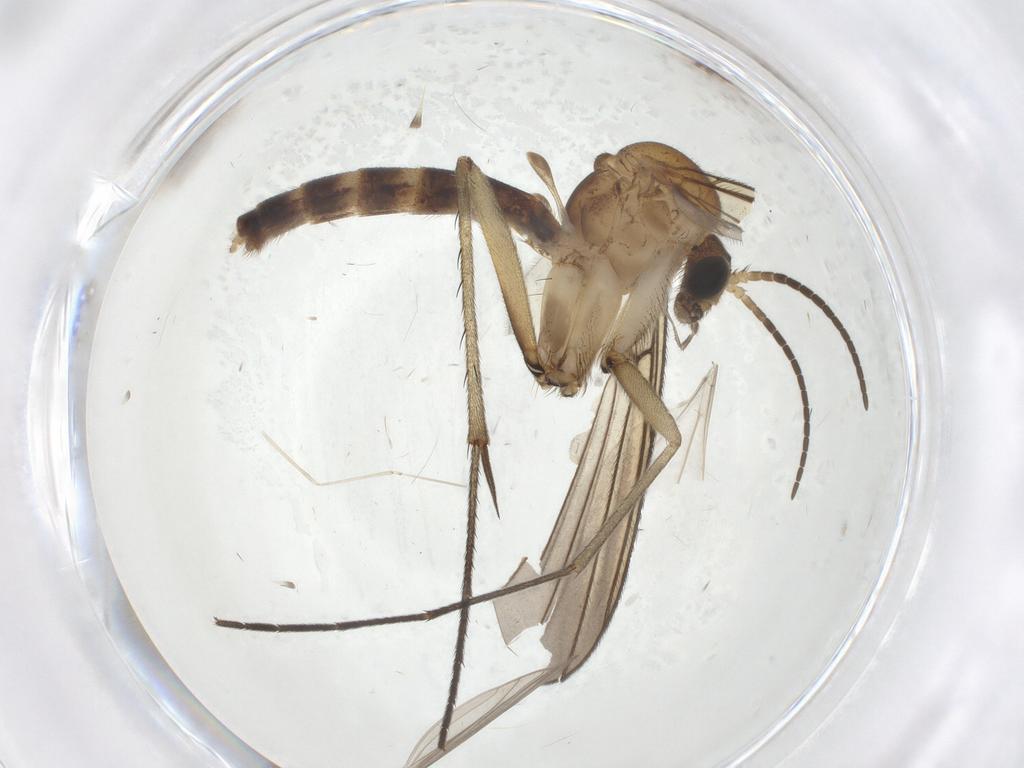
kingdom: Animalia
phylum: Arthropoda
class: Insecta
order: Diptera
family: Sciaridae
